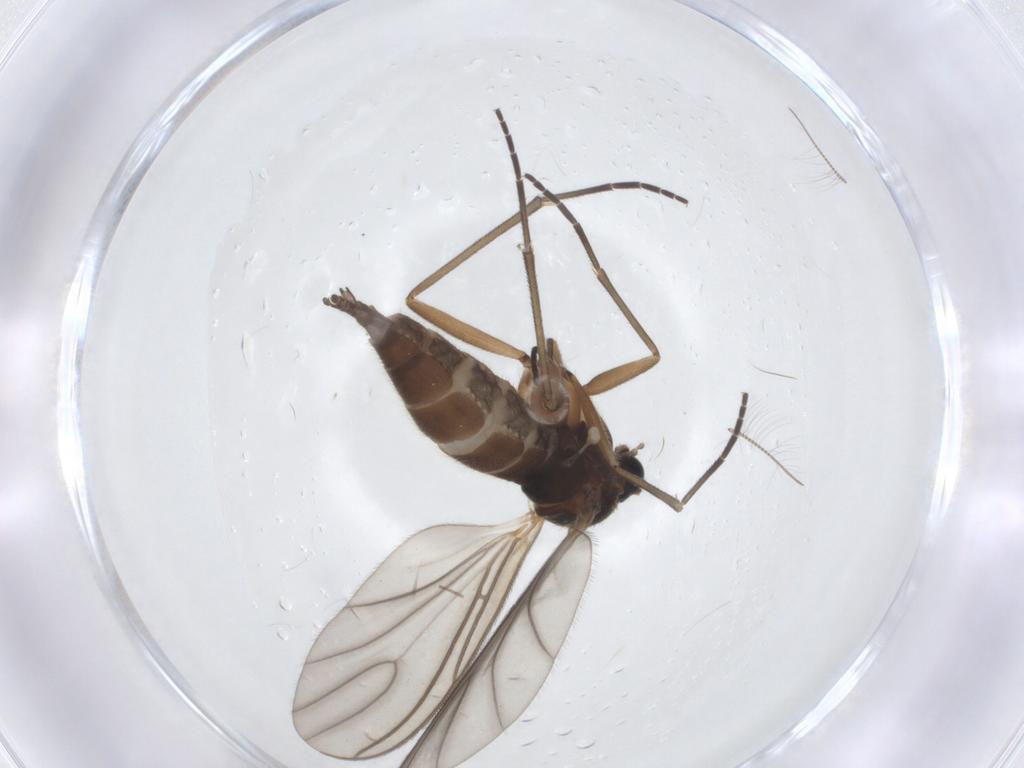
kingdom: Animalia
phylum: Arthropoda
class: Insecta
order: Diptera
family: Sciaridae
